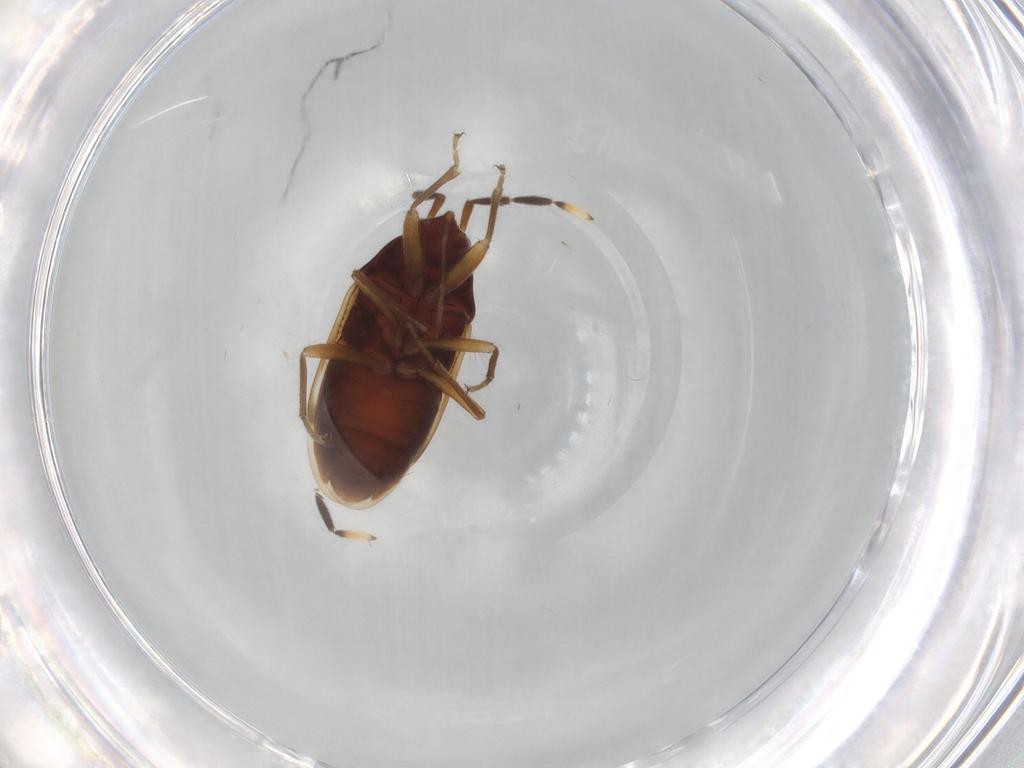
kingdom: Animalia
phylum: Arthropoda
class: Insecta
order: Hemiptera
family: Rhyparochromidae
